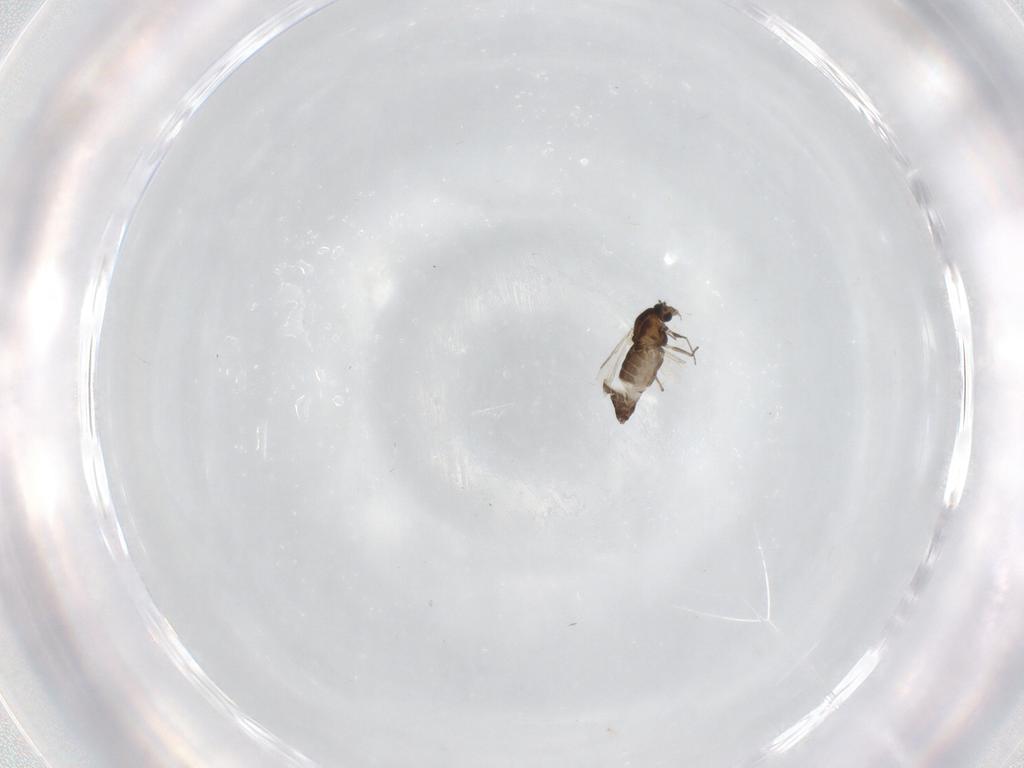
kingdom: Animalia
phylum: Arthropoda
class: Insecta
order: Diptera
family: Chironomidae
